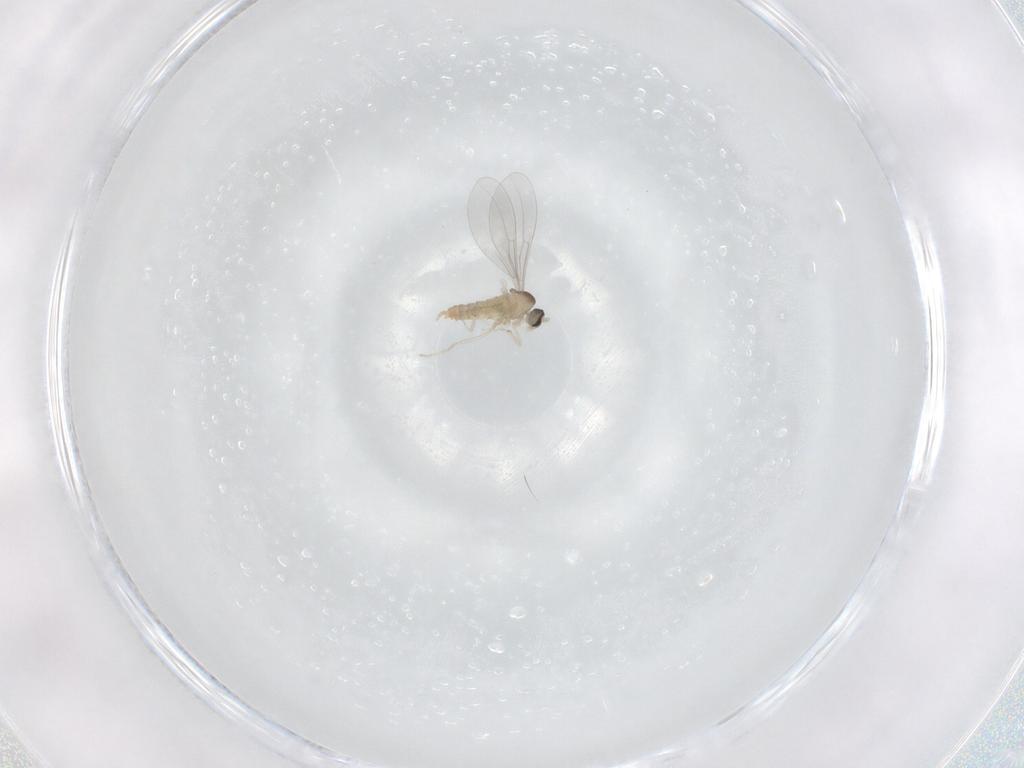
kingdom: Animalia
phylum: Arthropoda
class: Insecta
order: Diptera
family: Cecidomyiidae
